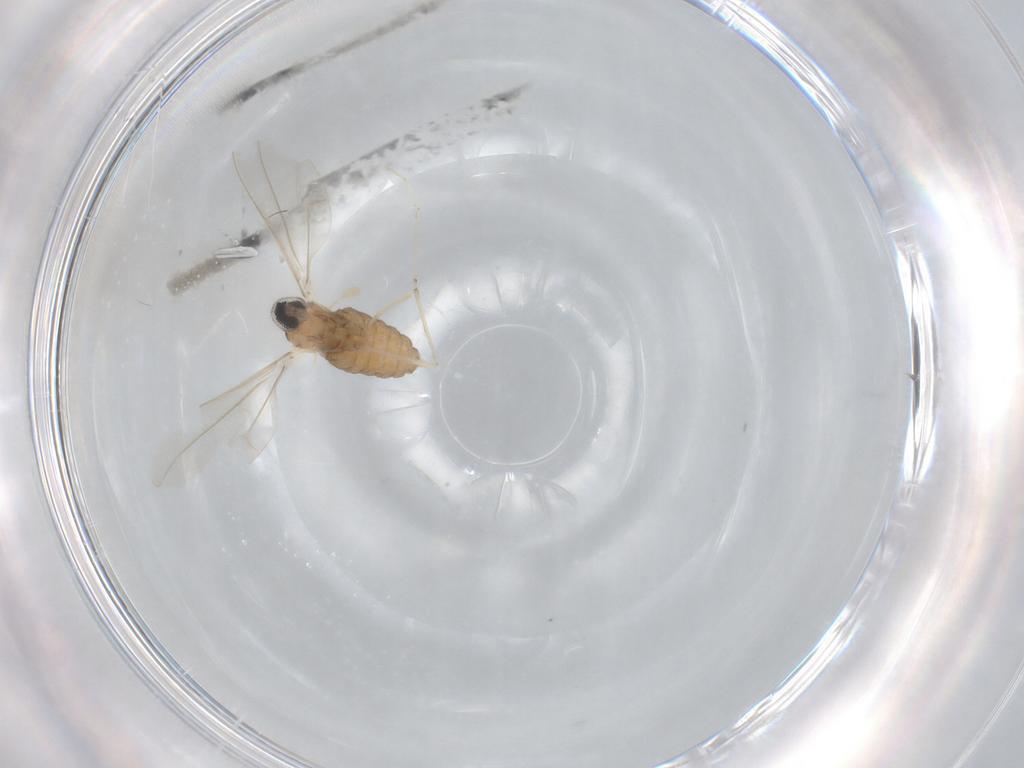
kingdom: Animalia
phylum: Arthropoda
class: Insecta
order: Diptera
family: Cecidomyiidae
